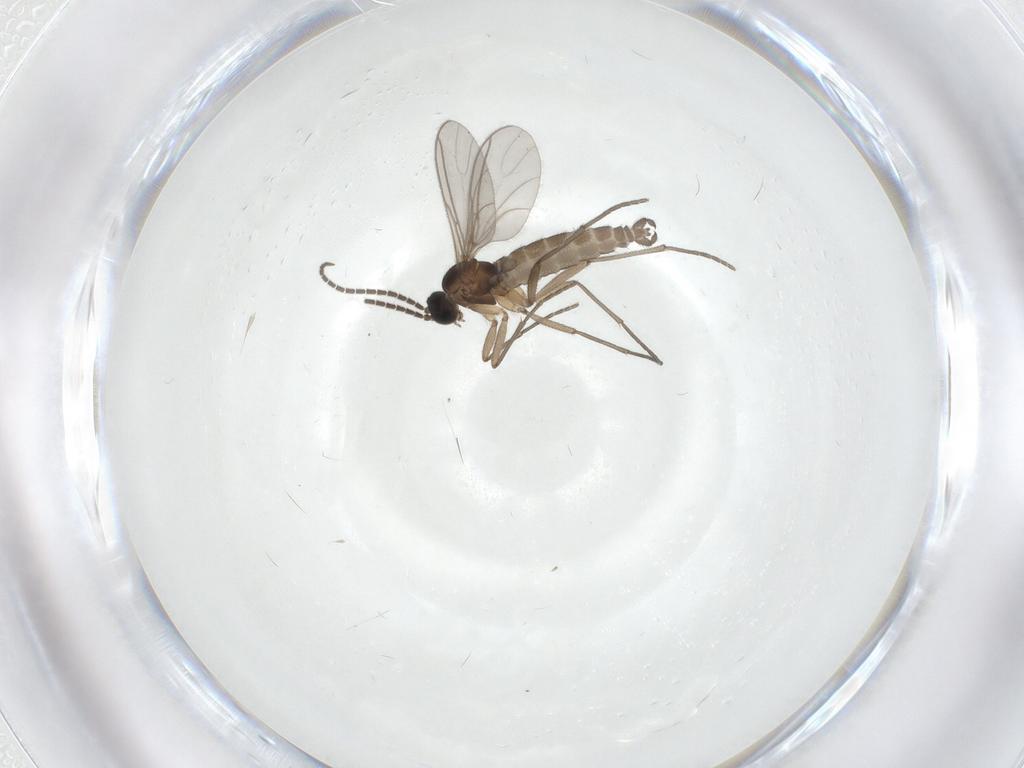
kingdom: Animalia
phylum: Arthropoda
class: Insecta
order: Diptera
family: Sciaridae
